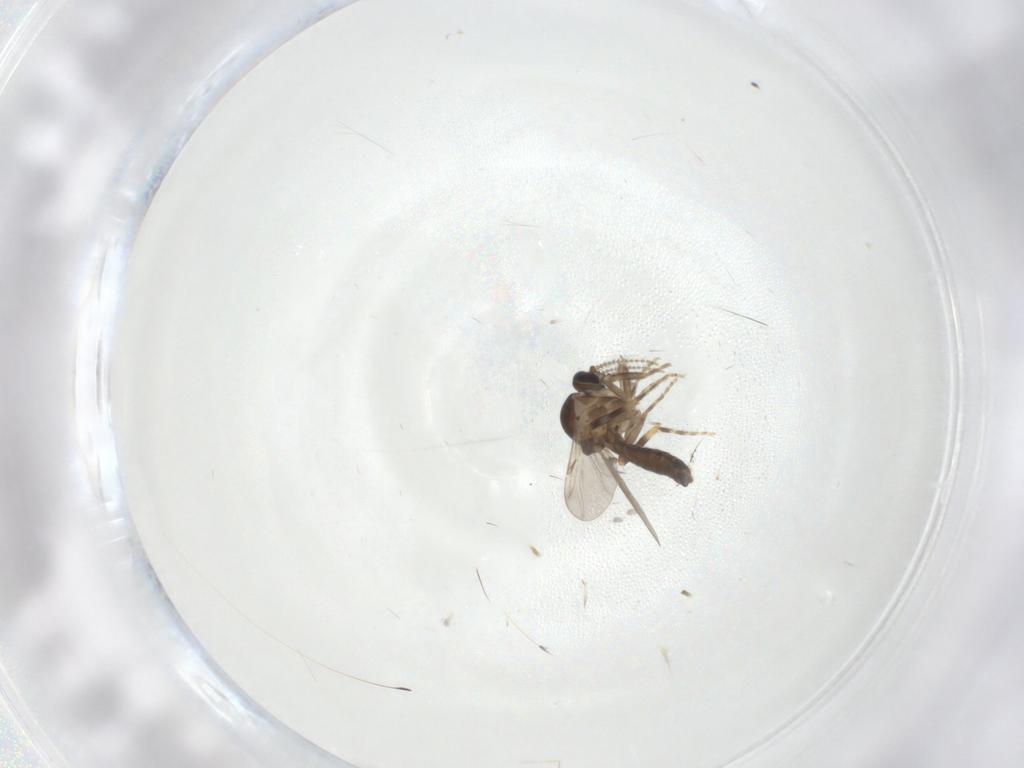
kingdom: Animalia
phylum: Arthropoda
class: Insecta
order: Diptera
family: Ceratopogonidae
